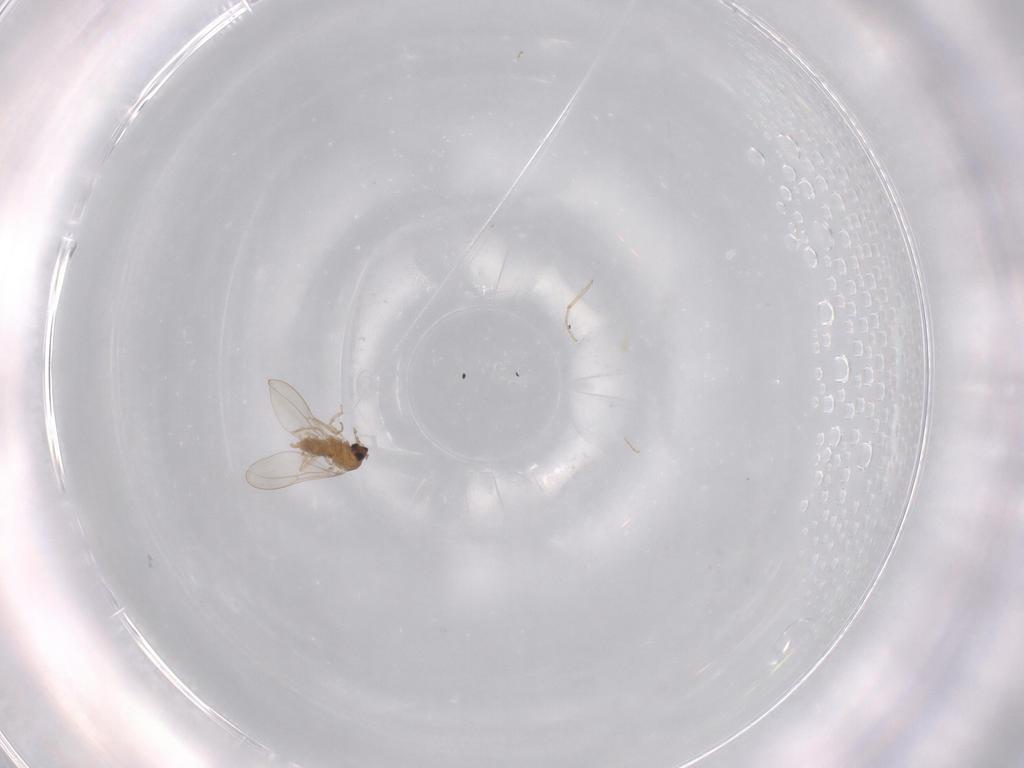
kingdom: Animalia
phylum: Arthropoda
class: Insecta
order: Diptera
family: Cecidomyiidae
